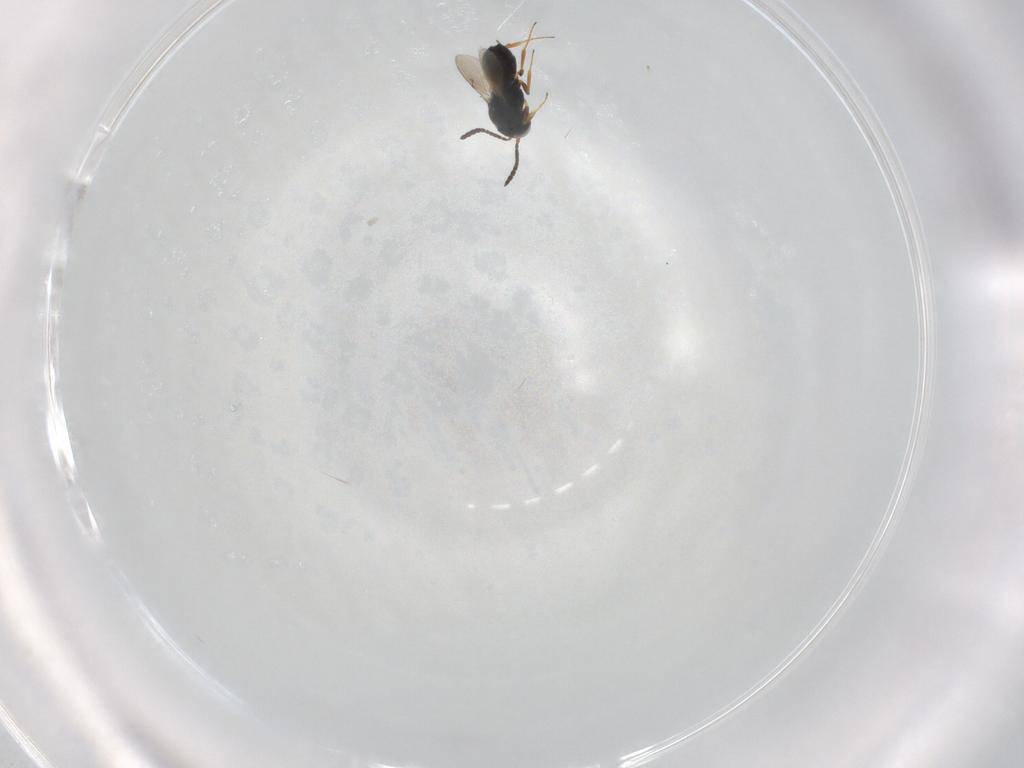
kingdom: Animalia
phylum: Arthropoda
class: Insecta
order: Hymenoptera
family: Scelionidae
